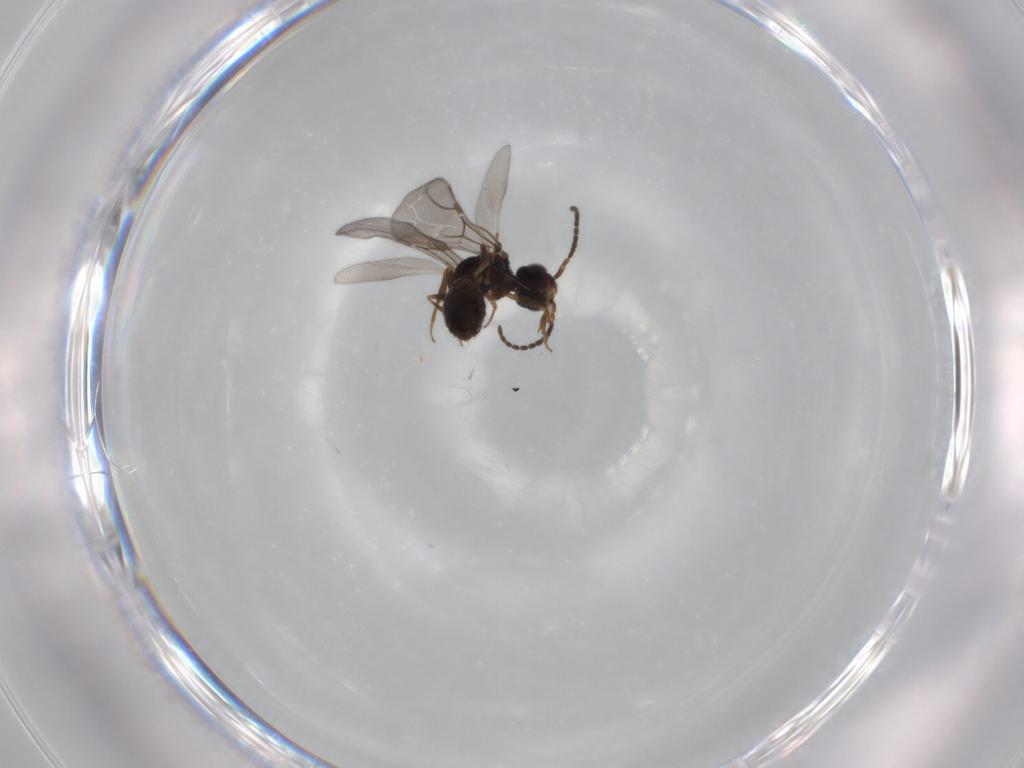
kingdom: Animalia
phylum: Arthropoda
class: Insecta
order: Hymenoptera
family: Bethylidae
